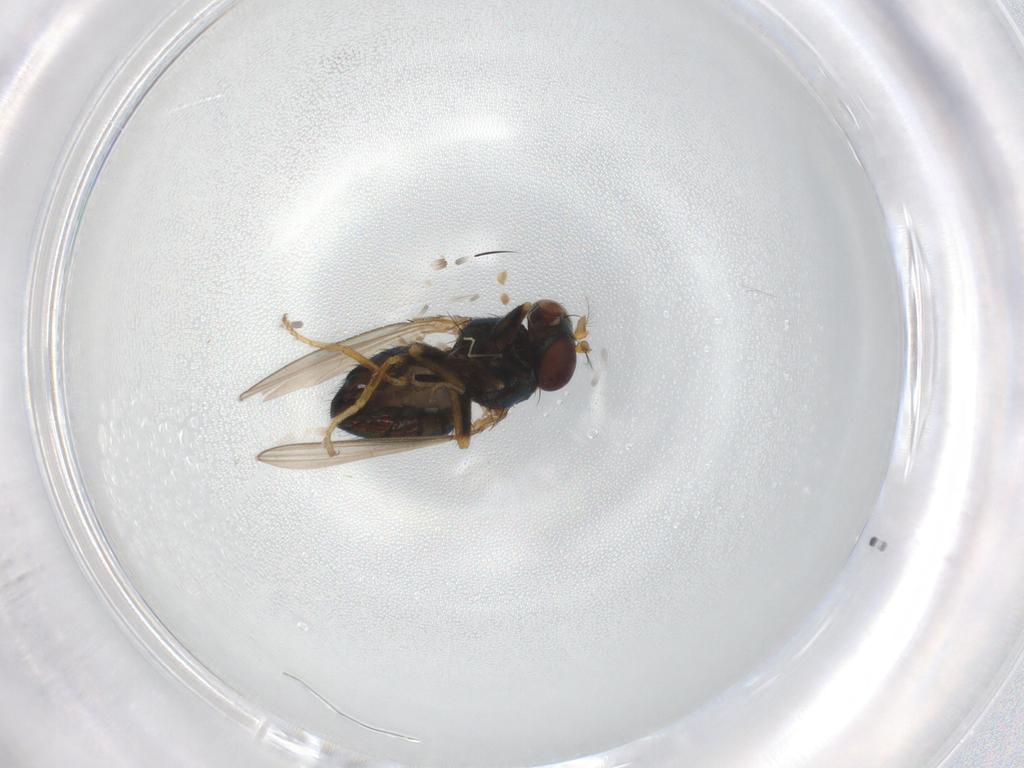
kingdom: Animalia
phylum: Arthropoda
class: Insecta
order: Diptera
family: Ephydridae
